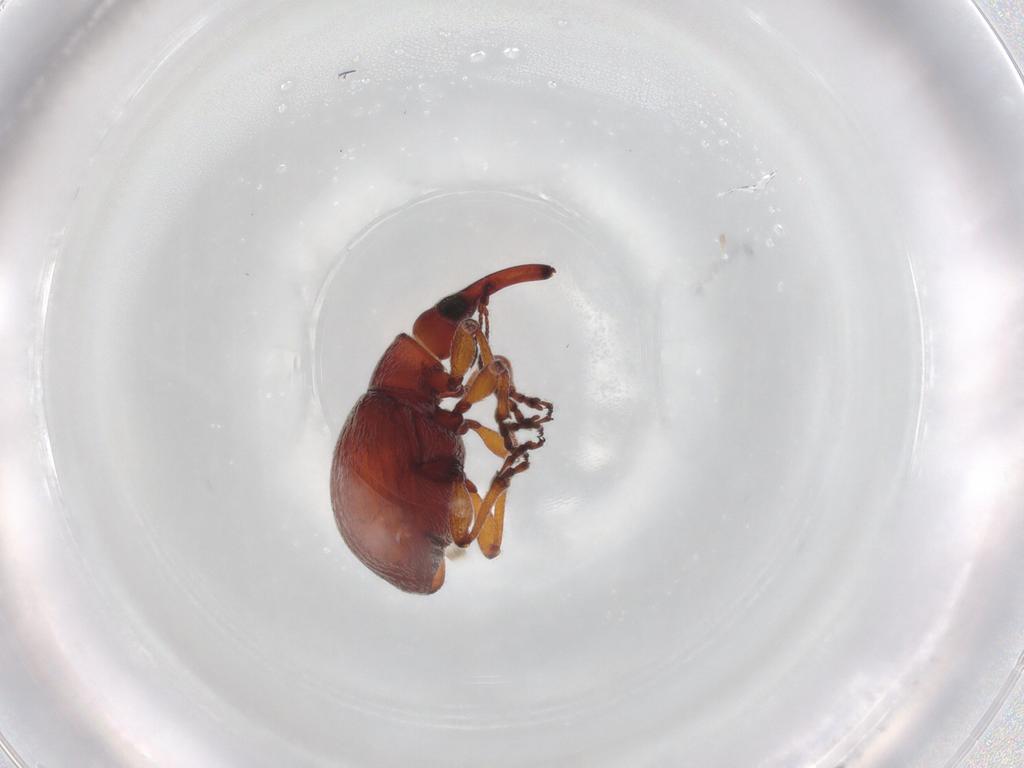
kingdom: Animalia
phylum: Arthropoda
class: Insecta
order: Coleoptera
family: Brentidae
